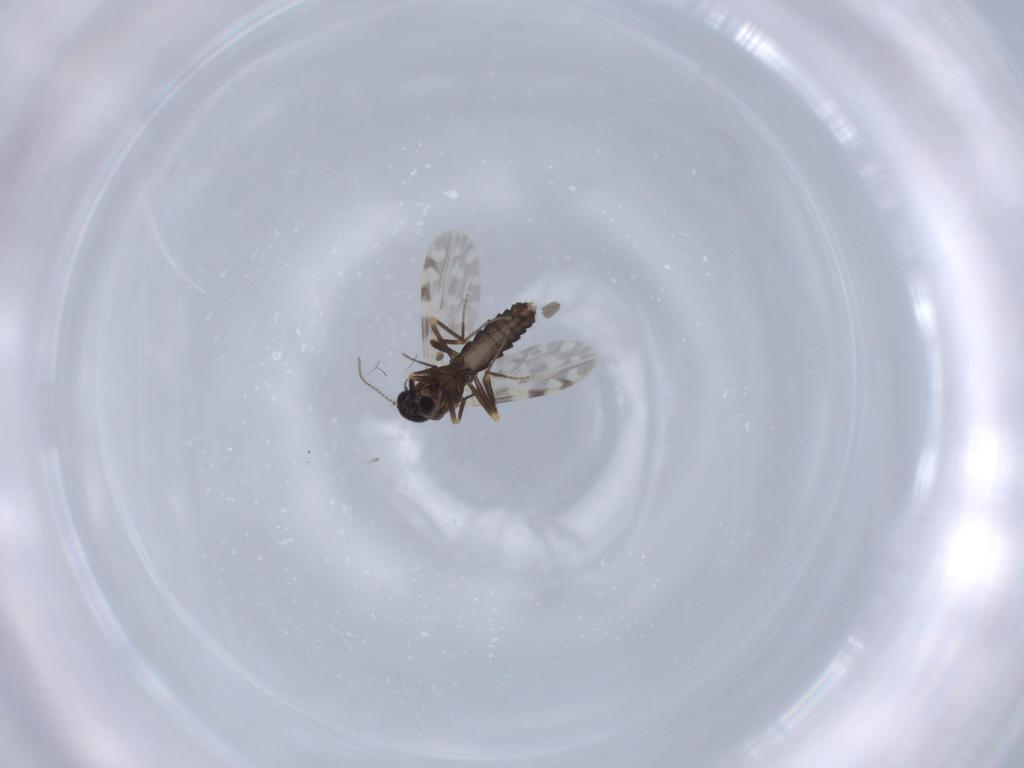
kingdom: Animalia
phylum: Arthropoda
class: Insecta
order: Diptera
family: Ceratopogonidae
